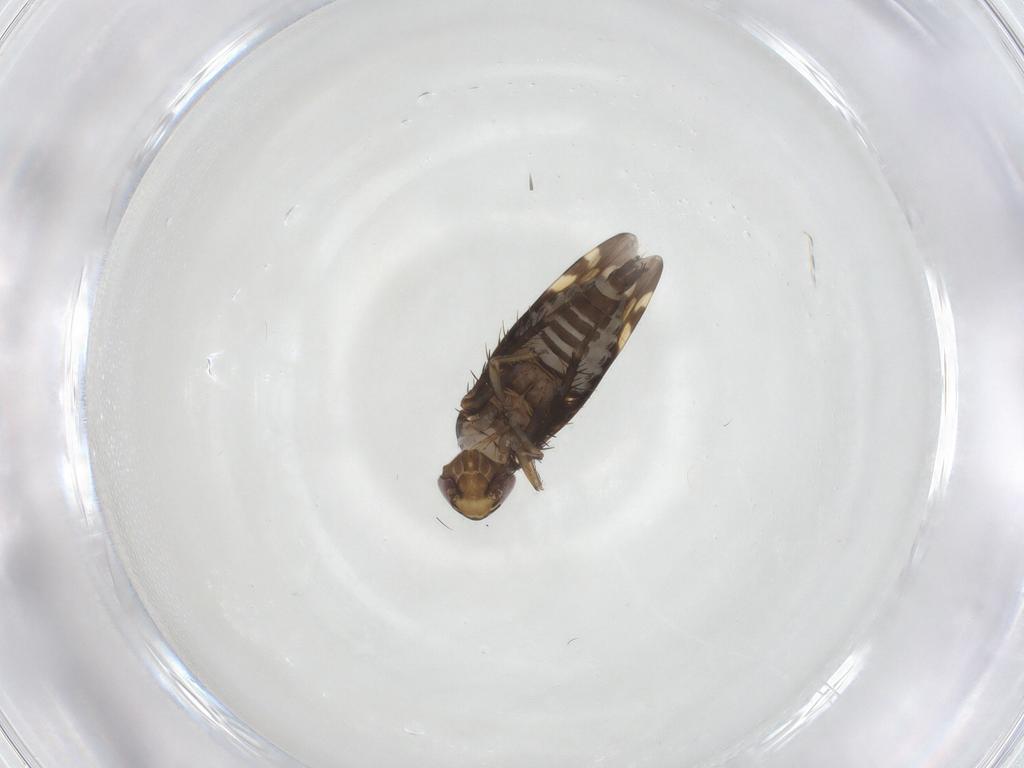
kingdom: Animalia
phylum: Arthropoda
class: Insecta
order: Hemiptera
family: Cicadellidae
